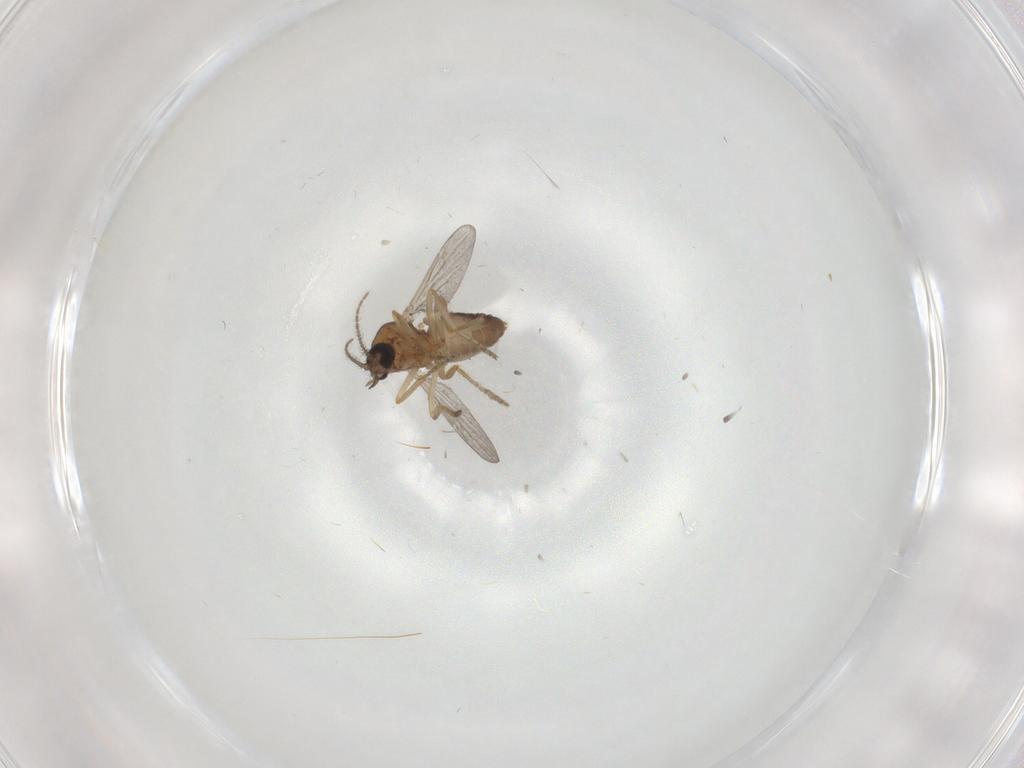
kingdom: Animalia
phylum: Arthropoda
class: Insecta
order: Diptera
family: Ceratopogonidae
